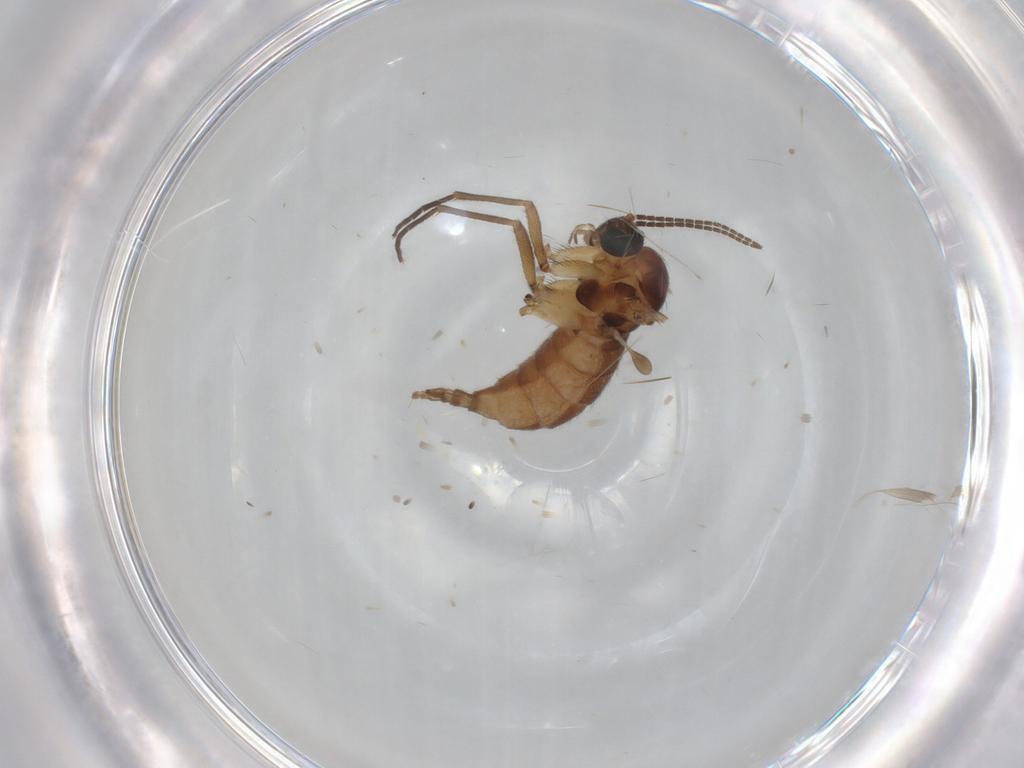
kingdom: Animalia
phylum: Arthropoda
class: Insecta
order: Diptera
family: Sciaridae
